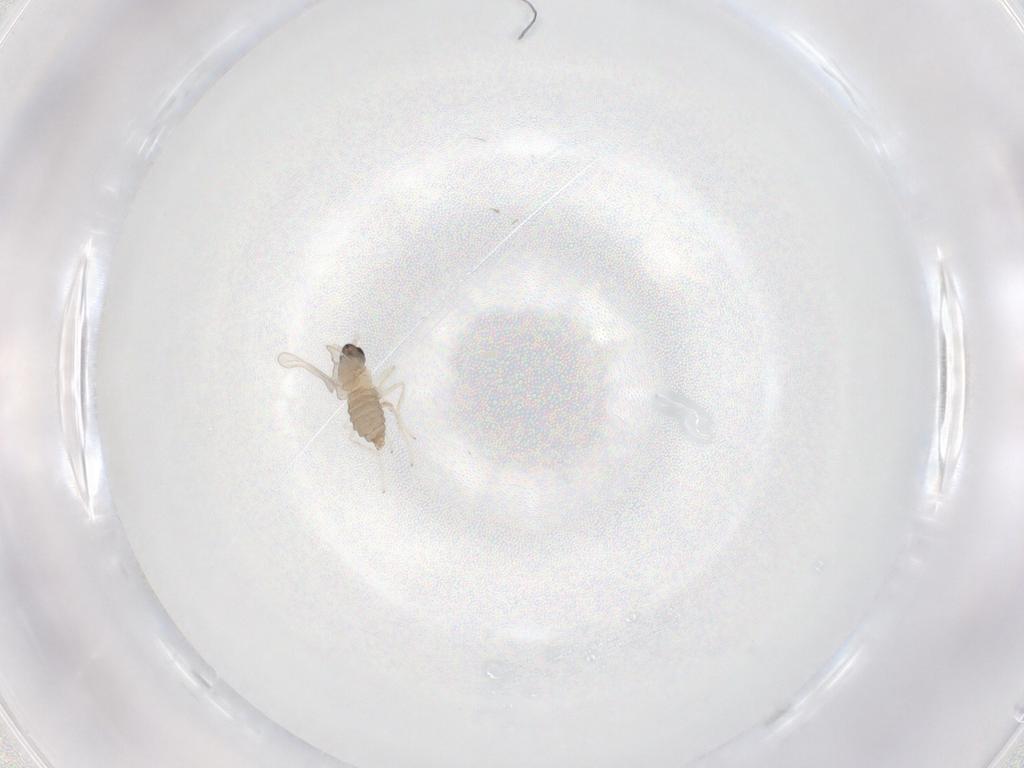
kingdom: Animalia
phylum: Arthropoda
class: Insecta
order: Diptera
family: Cecidomyiidae
